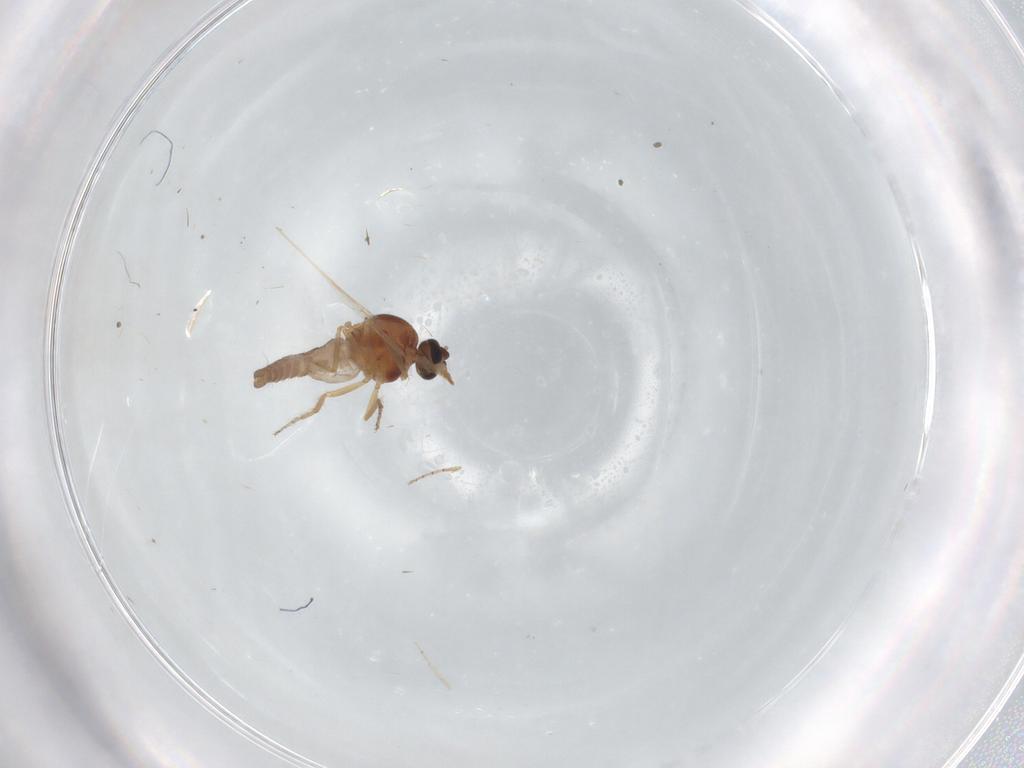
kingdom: Animalia
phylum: Arthropoda
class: Insecta
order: Diptera
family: Ceratopogonidae
